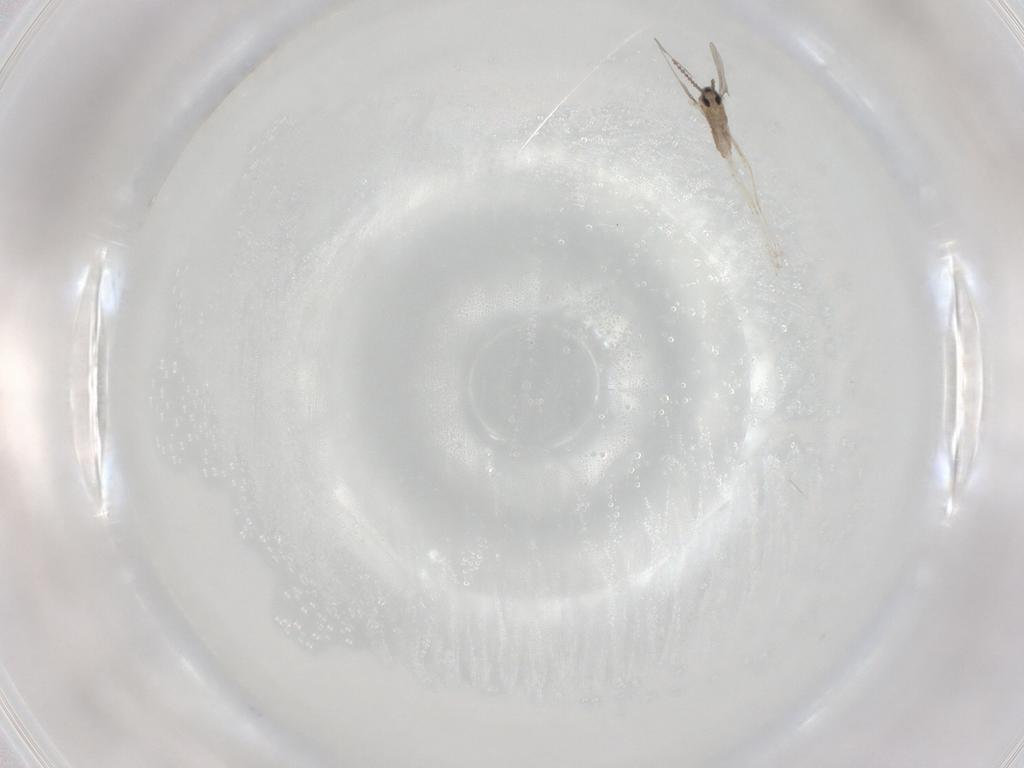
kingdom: Animalia
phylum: Arthropoda
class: Insecta
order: Diptera
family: Cecidomyiidae
